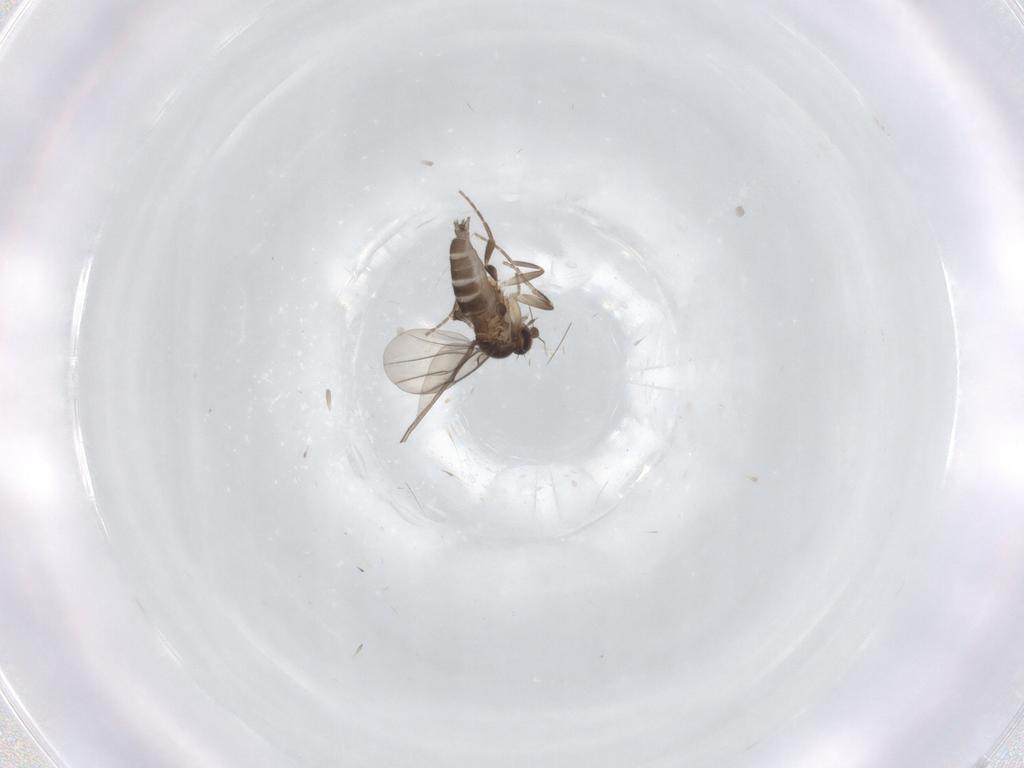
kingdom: Animalia
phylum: Arthropoda
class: Insecta
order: Diptera
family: Phoridae
